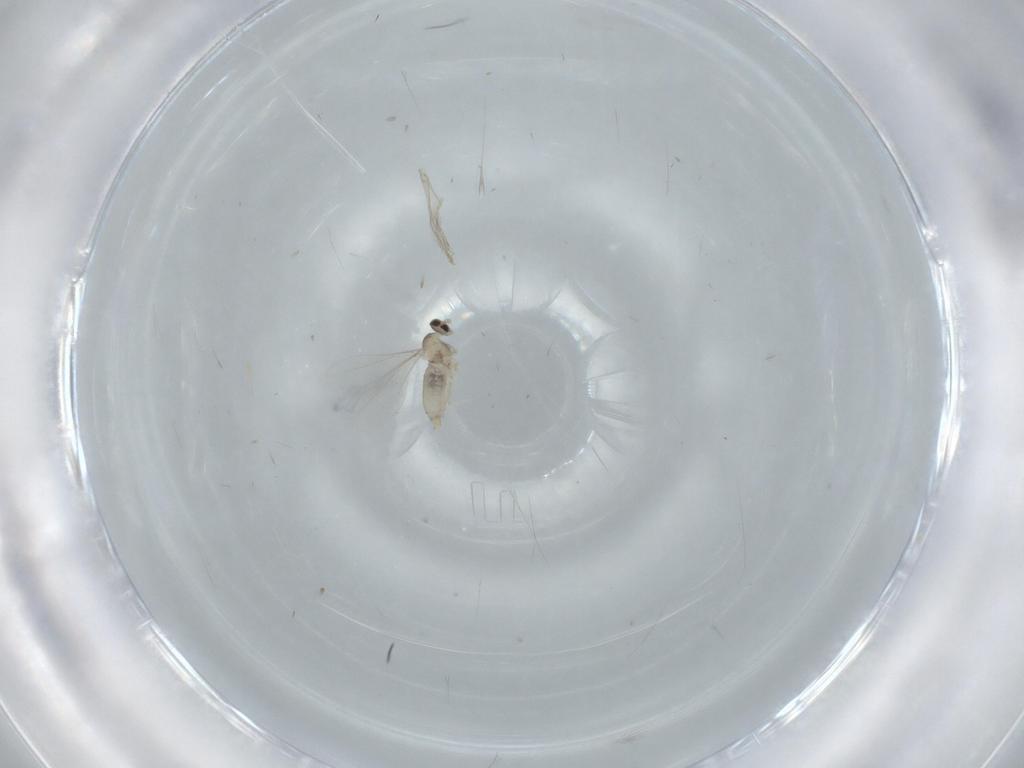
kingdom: Animalia
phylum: Arthropoda
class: Insecta
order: Diptera
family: Cecidomyiidae
